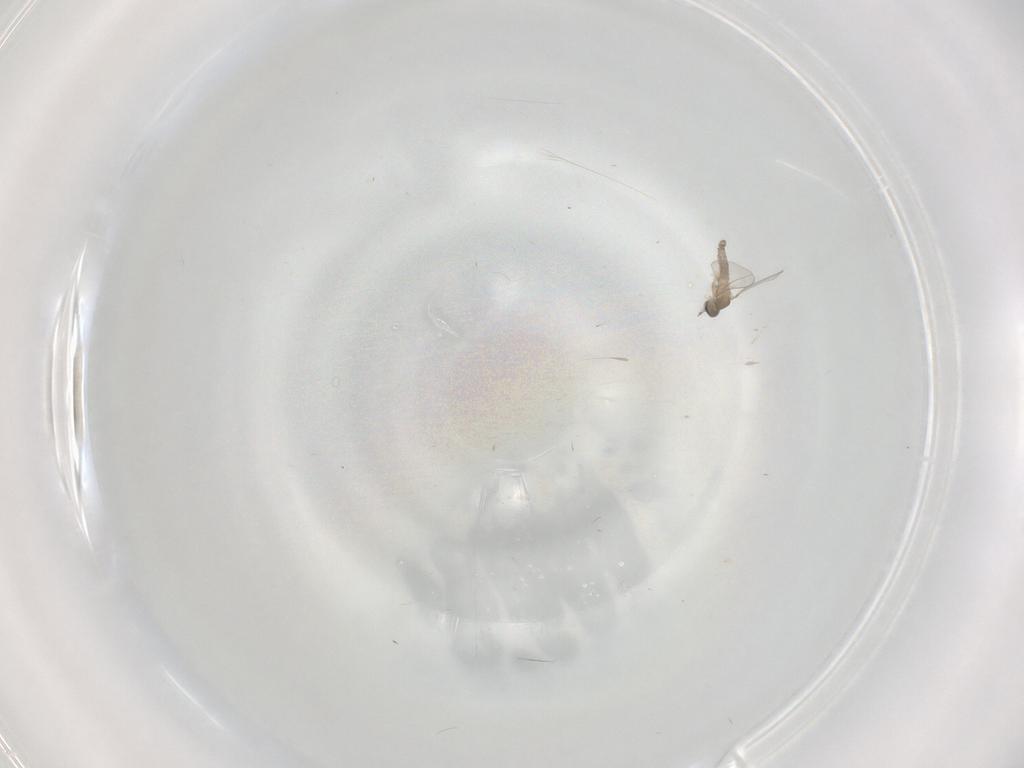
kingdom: Animalia
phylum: Arthropoda
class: Insecta
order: Diptera
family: Cecidomyiidae
